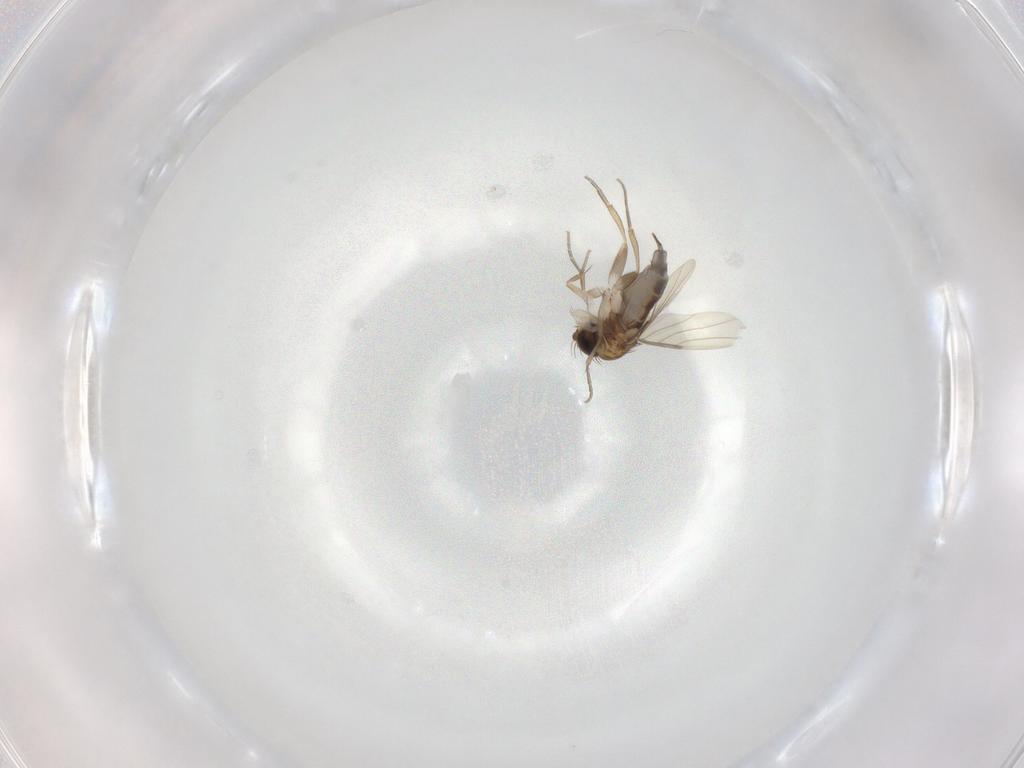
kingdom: Animalia
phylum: Arthropoda
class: Insecta
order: Diptera
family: Phoridae
